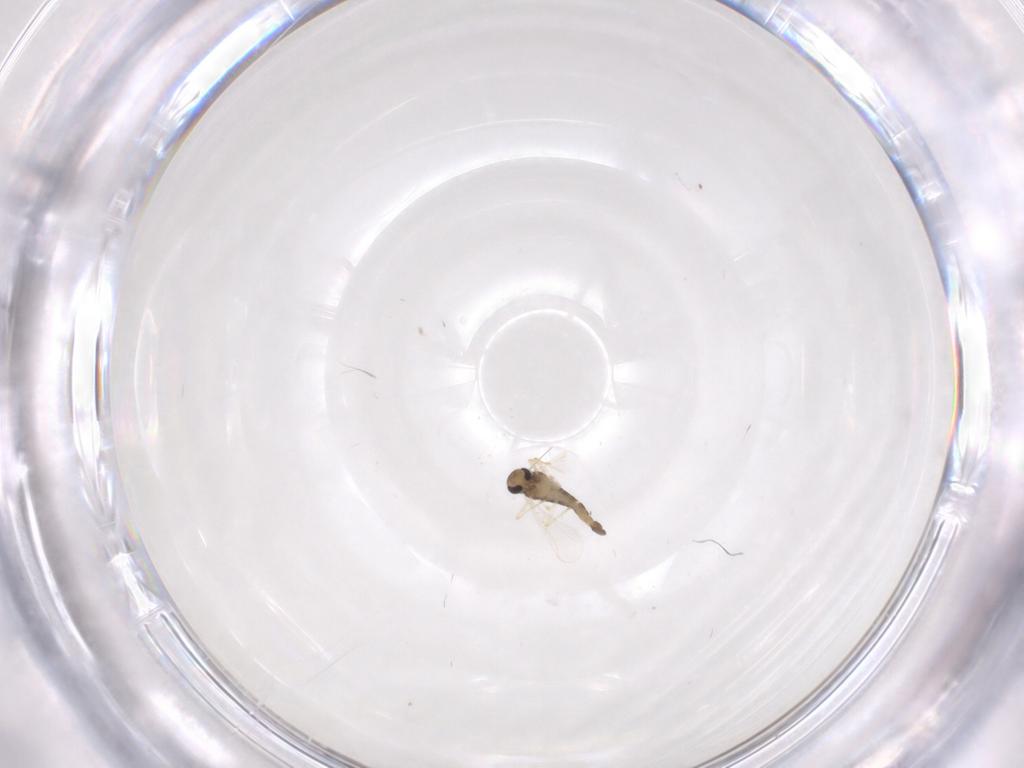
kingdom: Animalia
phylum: Arthropoda
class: Insecta
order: Diptera
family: Chironomidae
